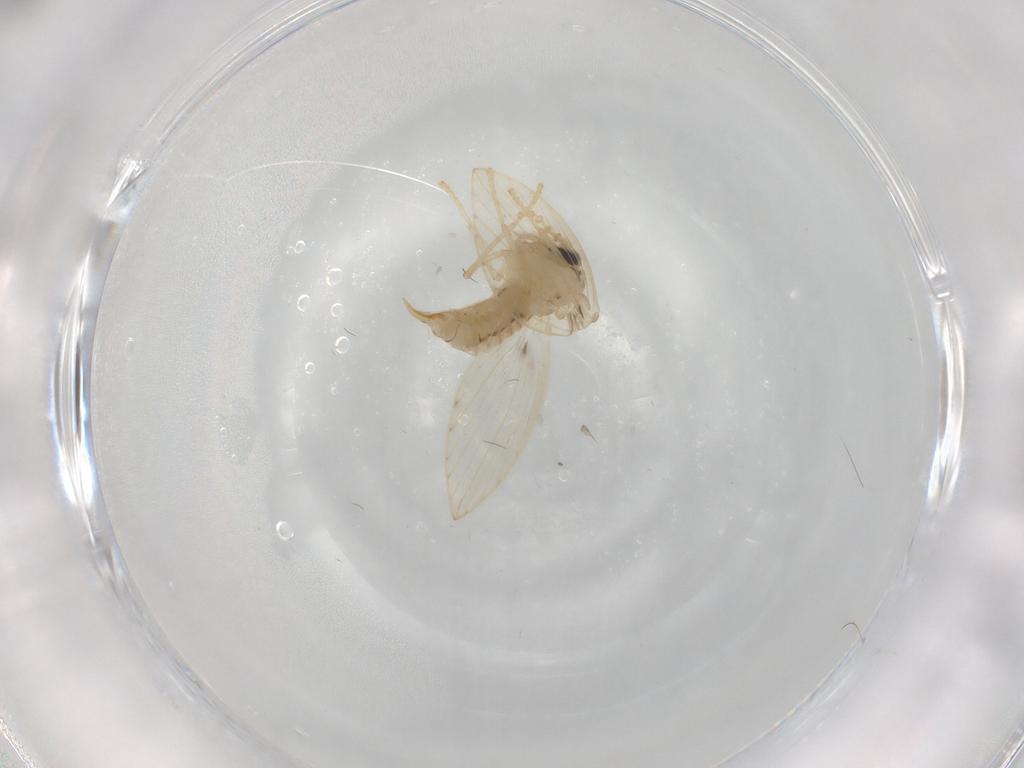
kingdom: Animalia
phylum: Arthropoda
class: Insecta
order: Diptera
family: Psychodidae
